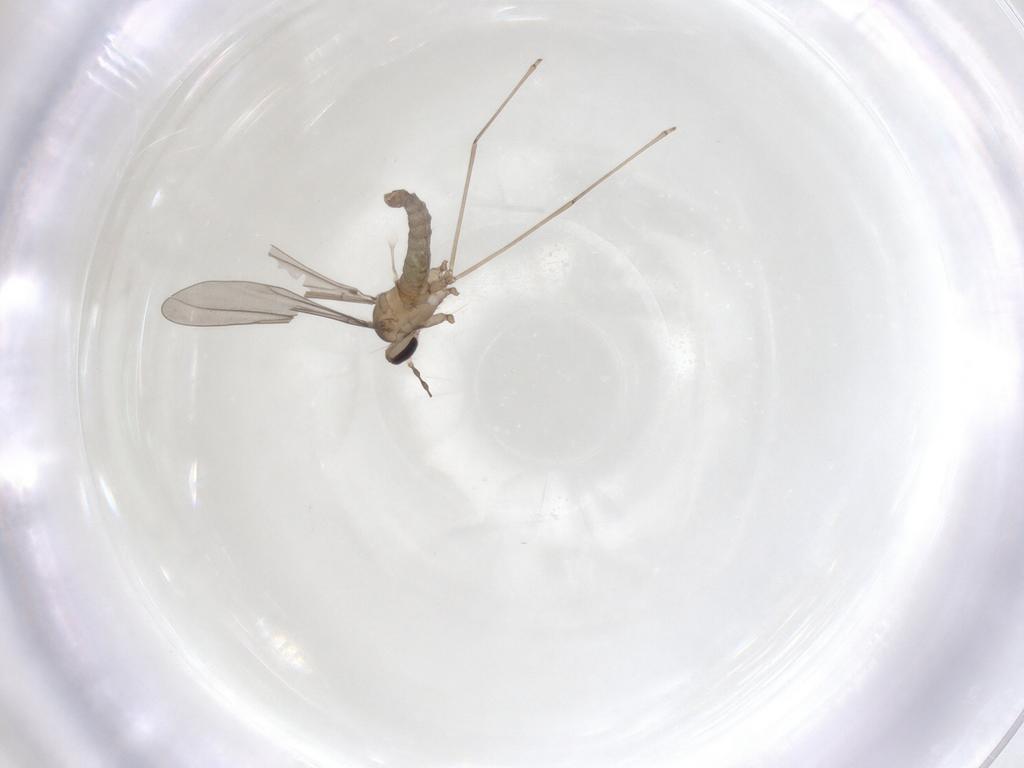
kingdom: Animalia
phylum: Arthropoda
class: Insecta
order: Diptera
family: Cecidomyiidae
